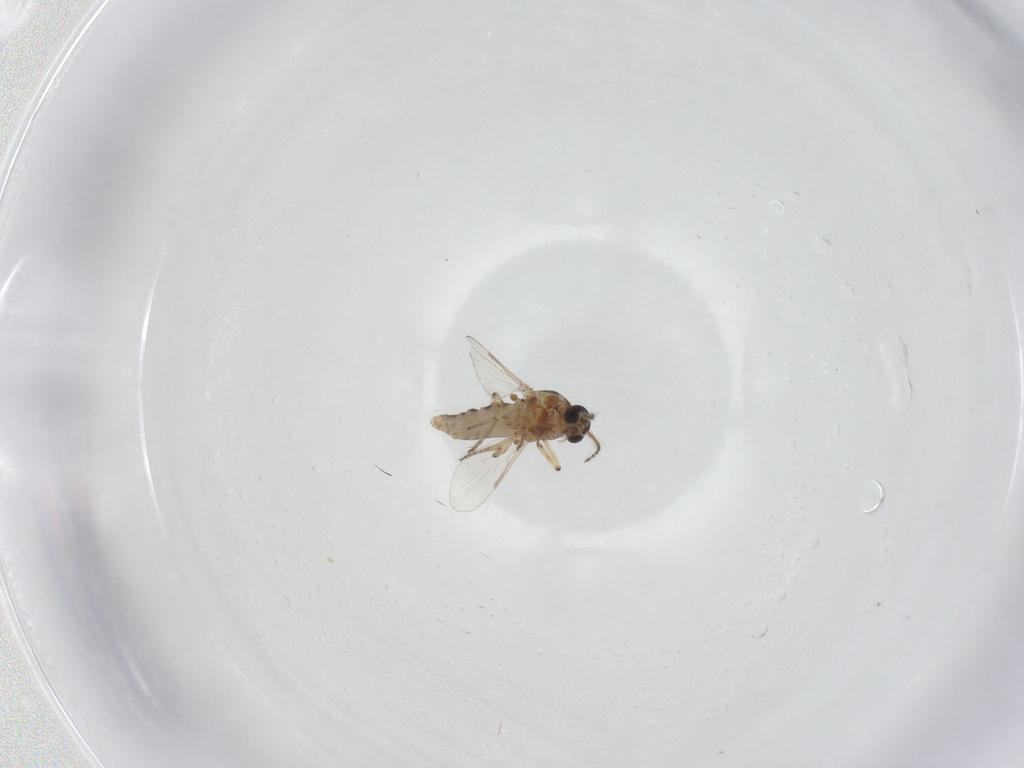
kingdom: Animalia
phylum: Arthropoda
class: Insecta
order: Diptera
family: Ceratopogonidae
